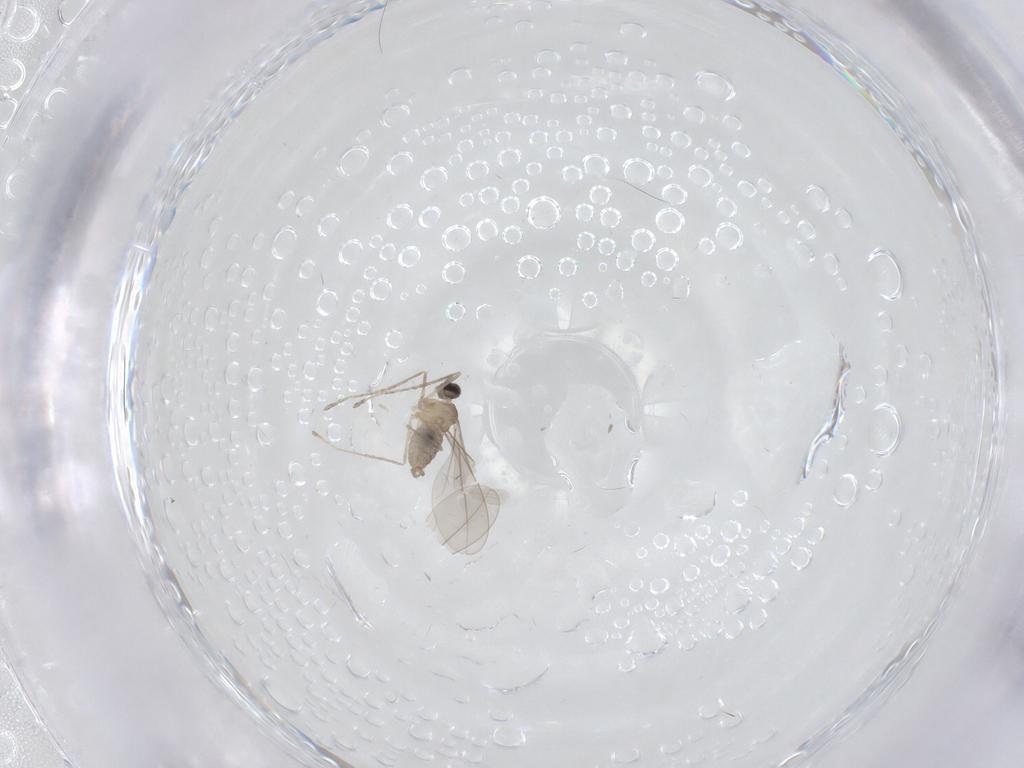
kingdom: Animalia
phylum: Arthropoda
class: Insecta
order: Diptera
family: Cecidomyiidae
